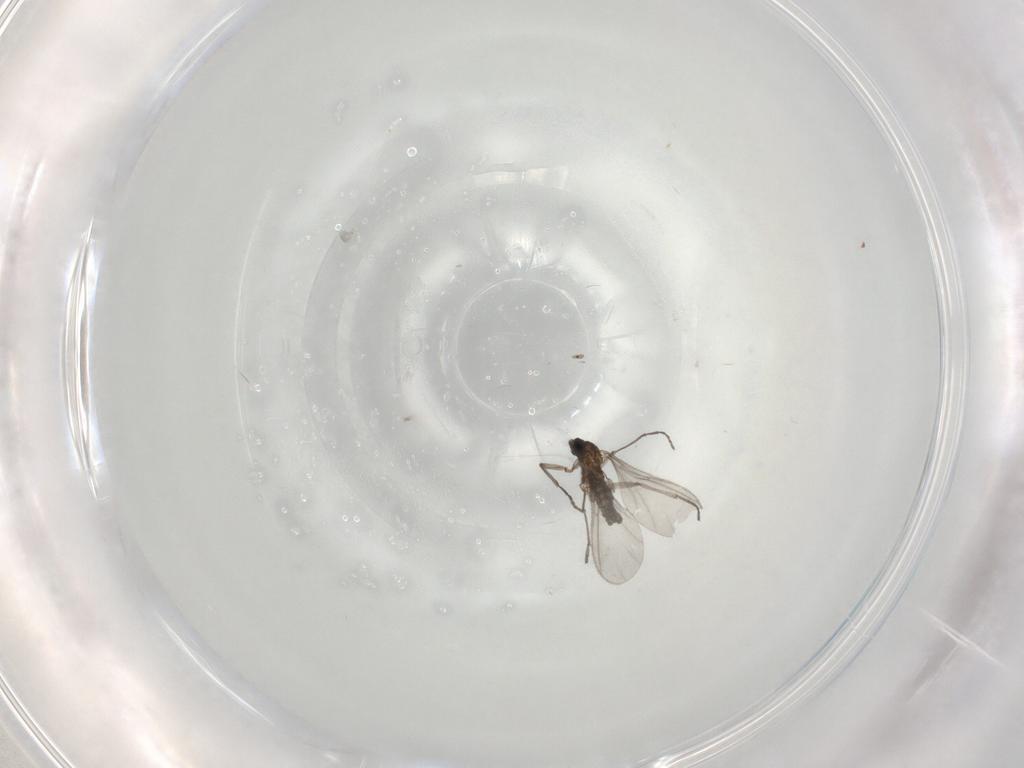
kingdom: Animalia
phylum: Arthropoda
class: Insecta
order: Diptera
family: Sciaridae
